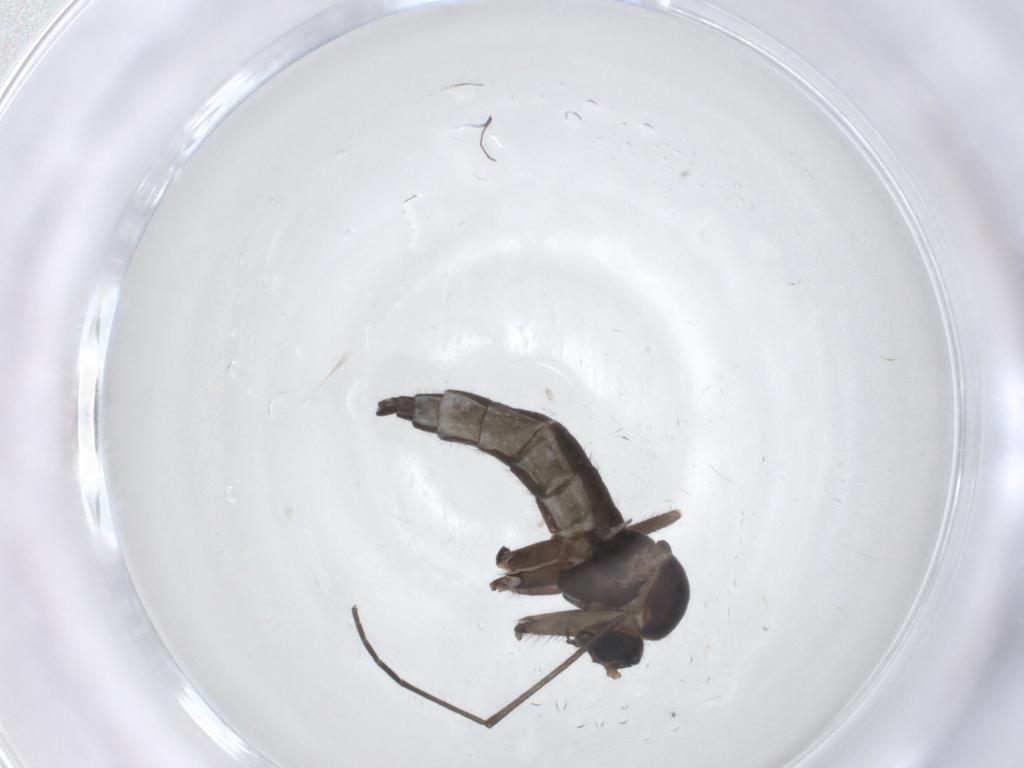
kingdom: Animalia
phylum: Arthropoda
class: Insecta
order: Diptera
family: Sciaridae
